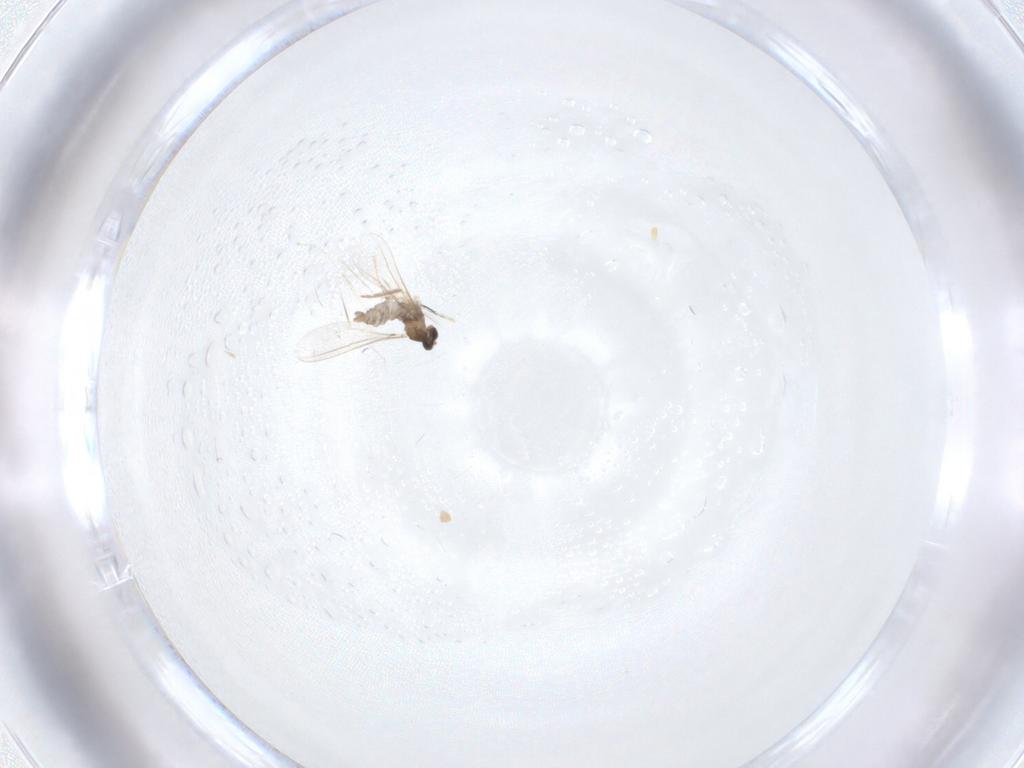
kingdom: Animalia
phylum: Arthropoda
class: Insecta
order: Diptera
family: Cecidomyiidae
